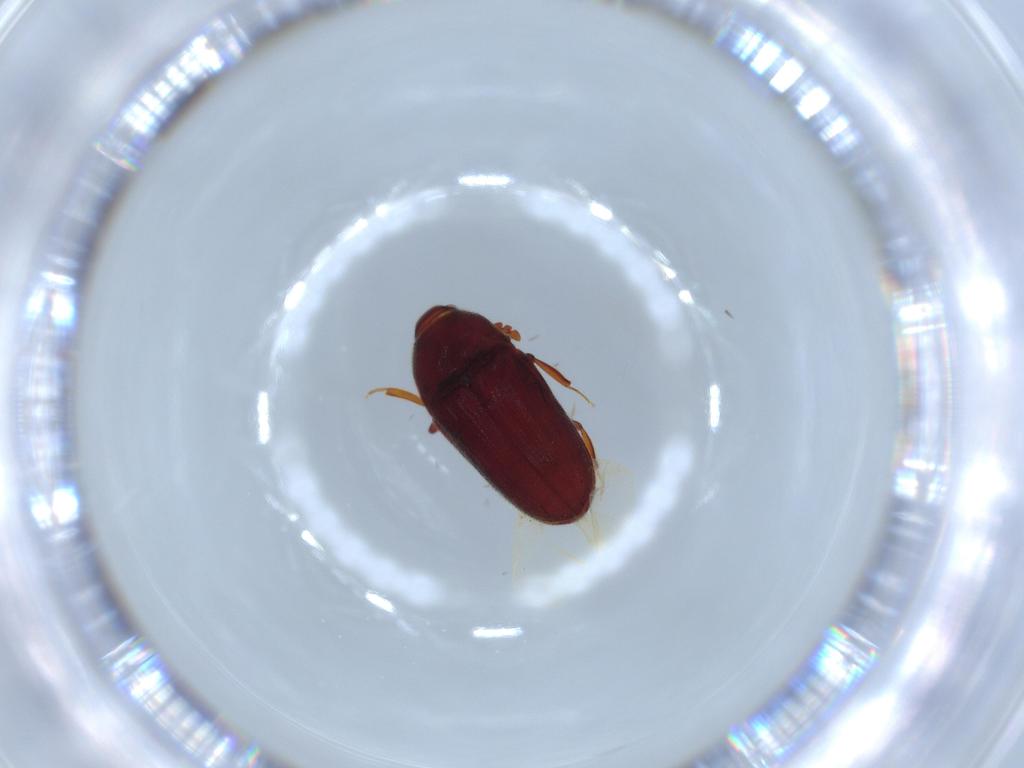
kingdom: Animalia
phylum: Arthropoda
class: Insecta
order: Coleoptera
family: Throscidae
